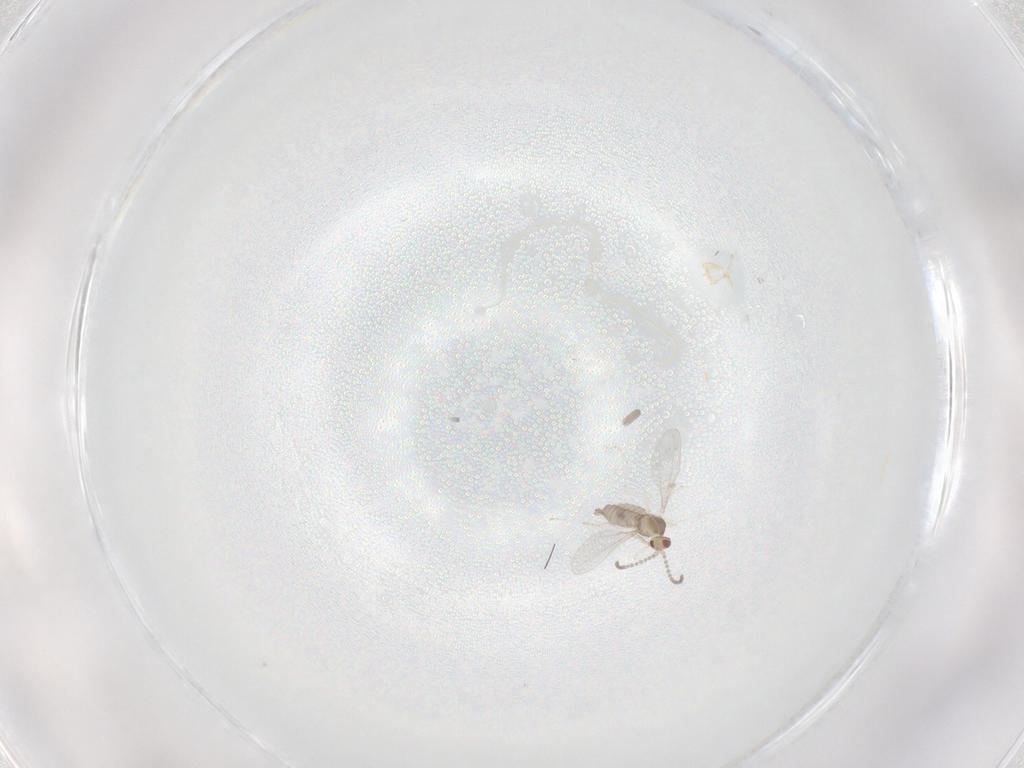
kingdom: Animalia
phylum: Arthropoda
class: Insecta
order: Diptera
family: Cecidomyiidae
